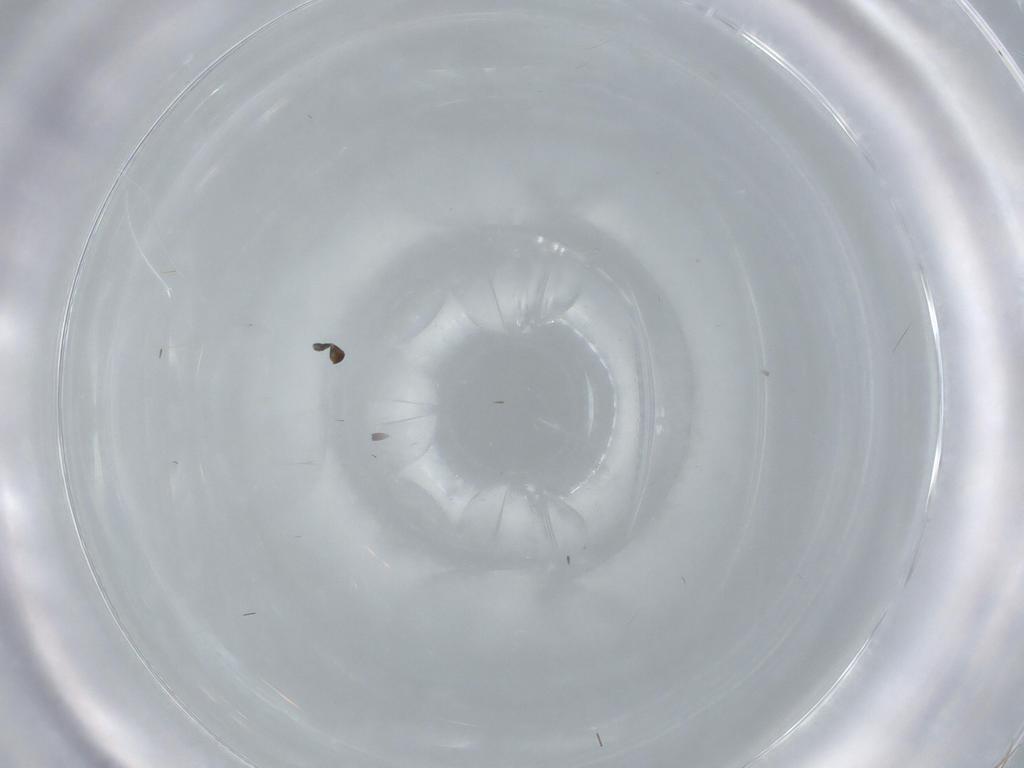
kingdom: Animalia
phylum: Arthropoda
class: Insecta
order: Diptera
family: Milichiidae
